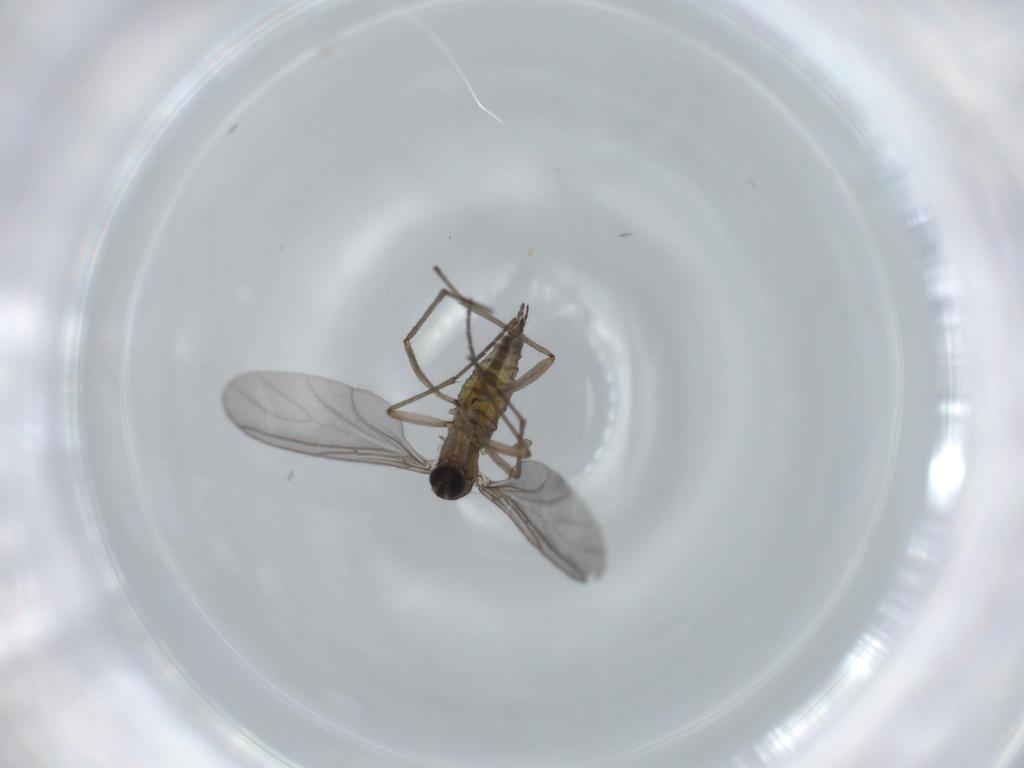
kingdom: Animalia
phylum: Arthropoda
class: Insecta
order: Diptera
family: Sciaridae
